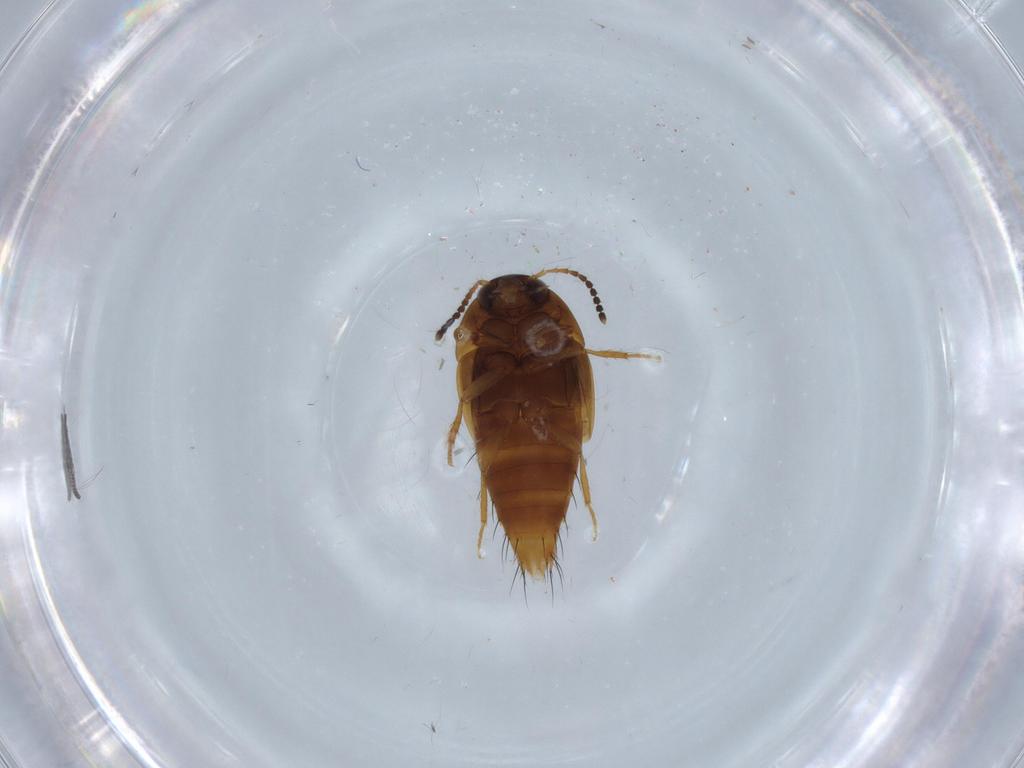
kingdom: Animalia
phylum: Arthropoda
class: Insecta
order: Coleoptera
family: Staphylinidae
